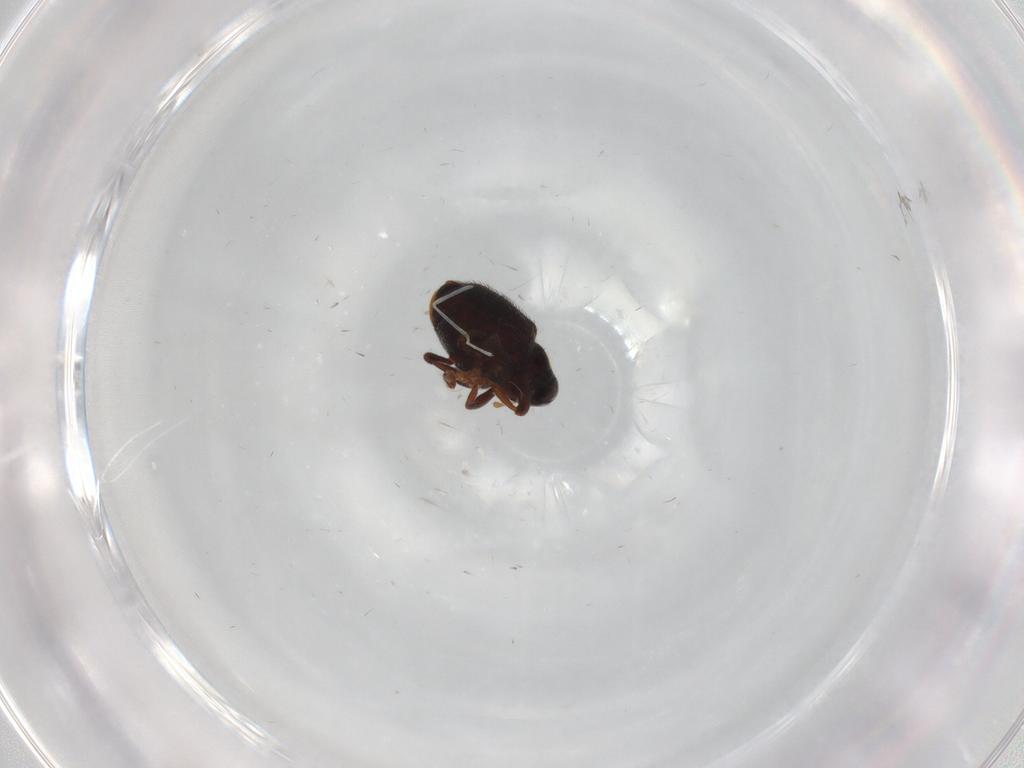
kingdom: Animalia
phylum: Arthropoda
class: Insecta
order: Coleoptera
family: Curculionidae
